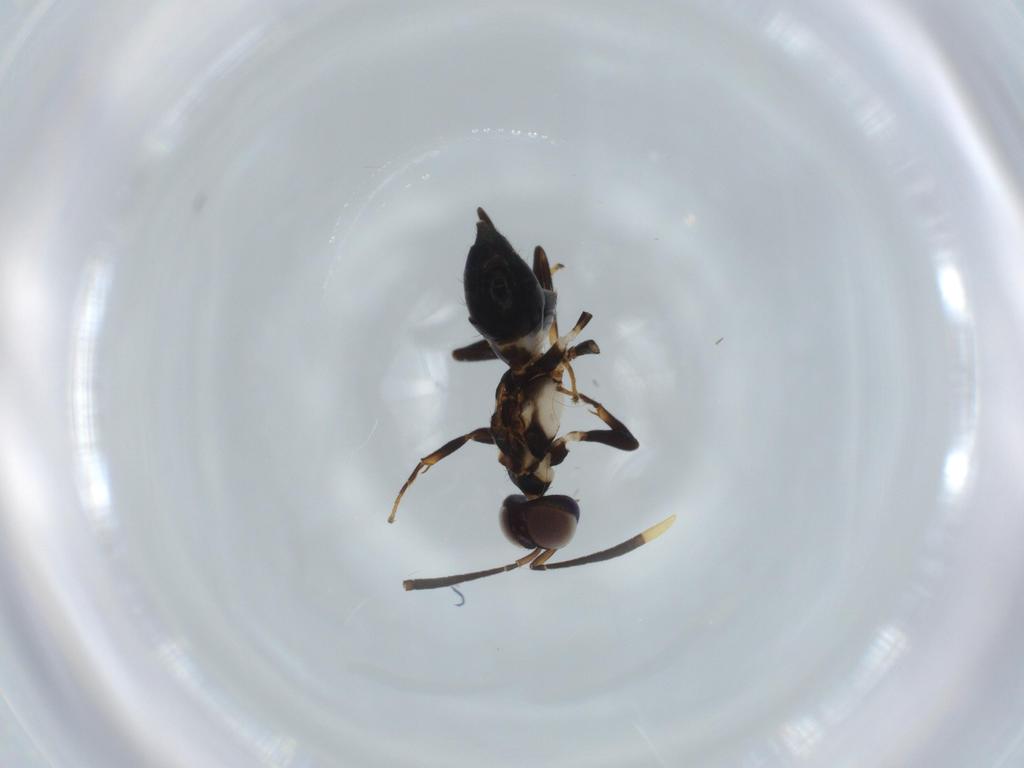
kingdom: Animalia
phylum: Arthropoda
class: Insecta
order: Hymenoptera
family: Eupelmidae
